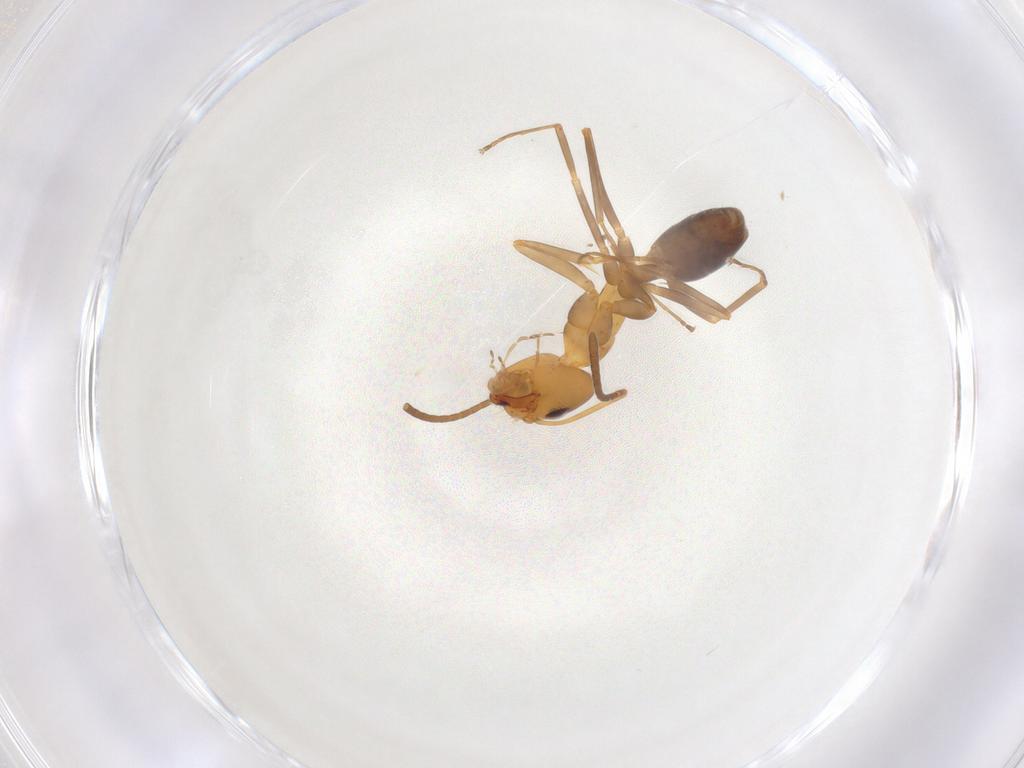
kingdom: Animalia
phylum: Arthropoda
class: Insecta
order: Hymenoptera
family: Formicidae
